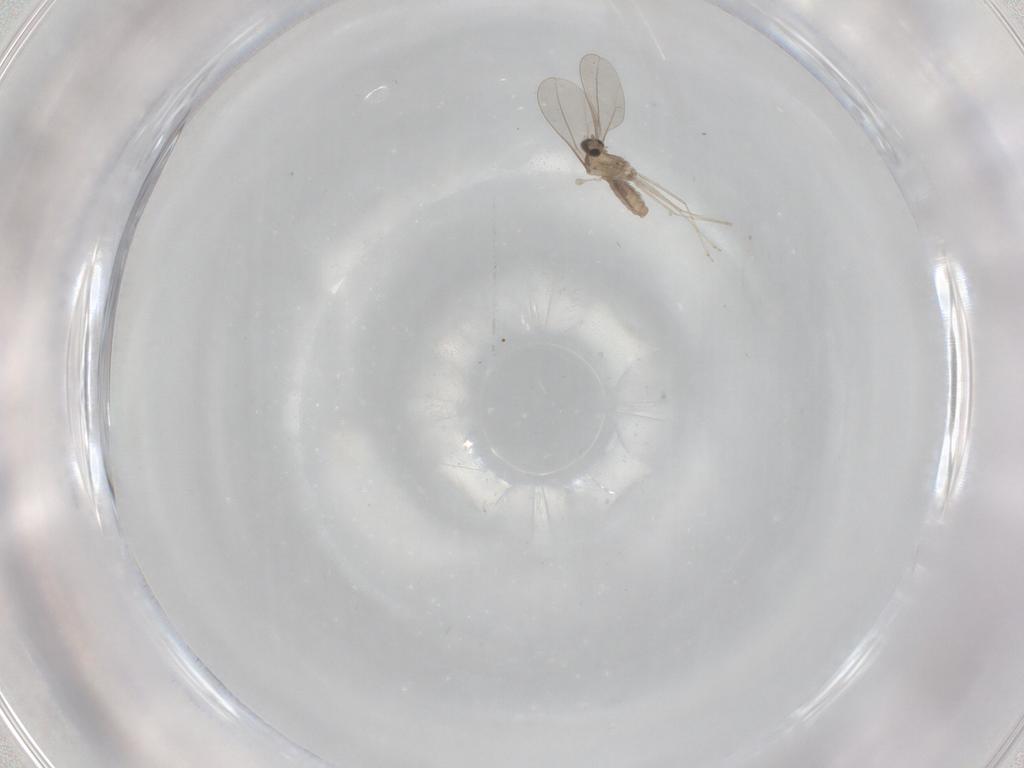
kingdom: Animalia
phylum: Arthropoda
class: Insecta
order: Diptera
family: Cecidomyiidae
